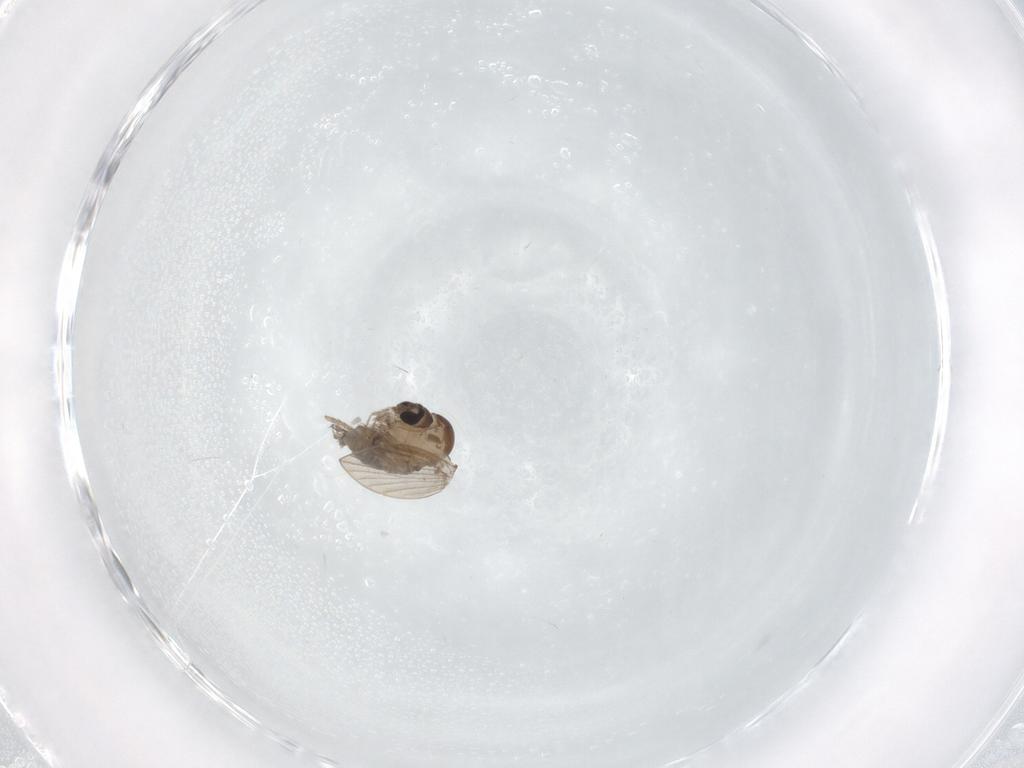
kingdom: Animalia
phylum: Arthropoda
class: Insecta
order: Diptera
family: Psychodidae
